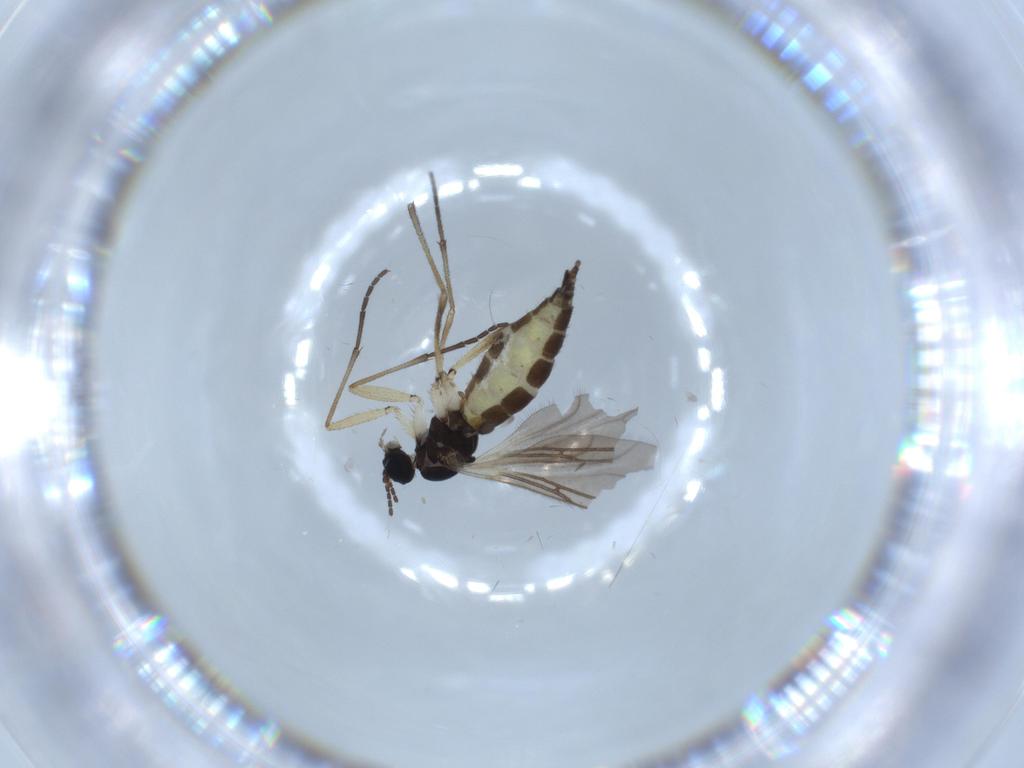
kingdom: Animalia
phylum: Arthropoda
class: Insecta
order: Diptera
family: Sciaridae
